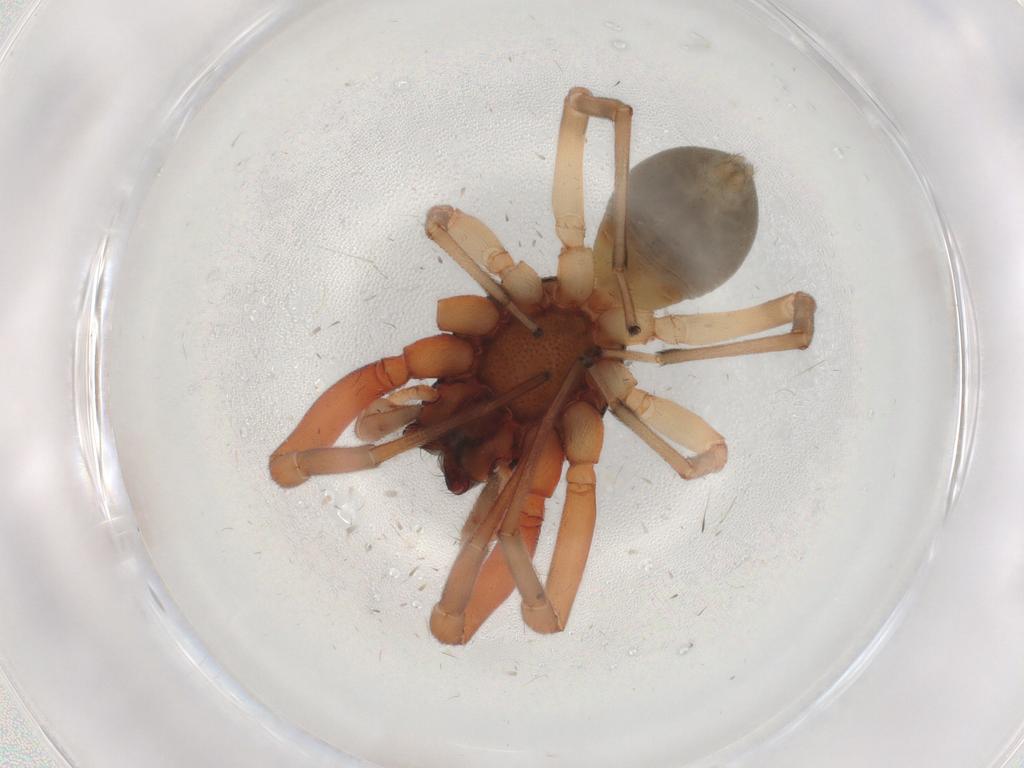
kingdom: Animalia
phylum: Arthropoda
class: Arachnida
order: Araneae
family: Trachelidae
